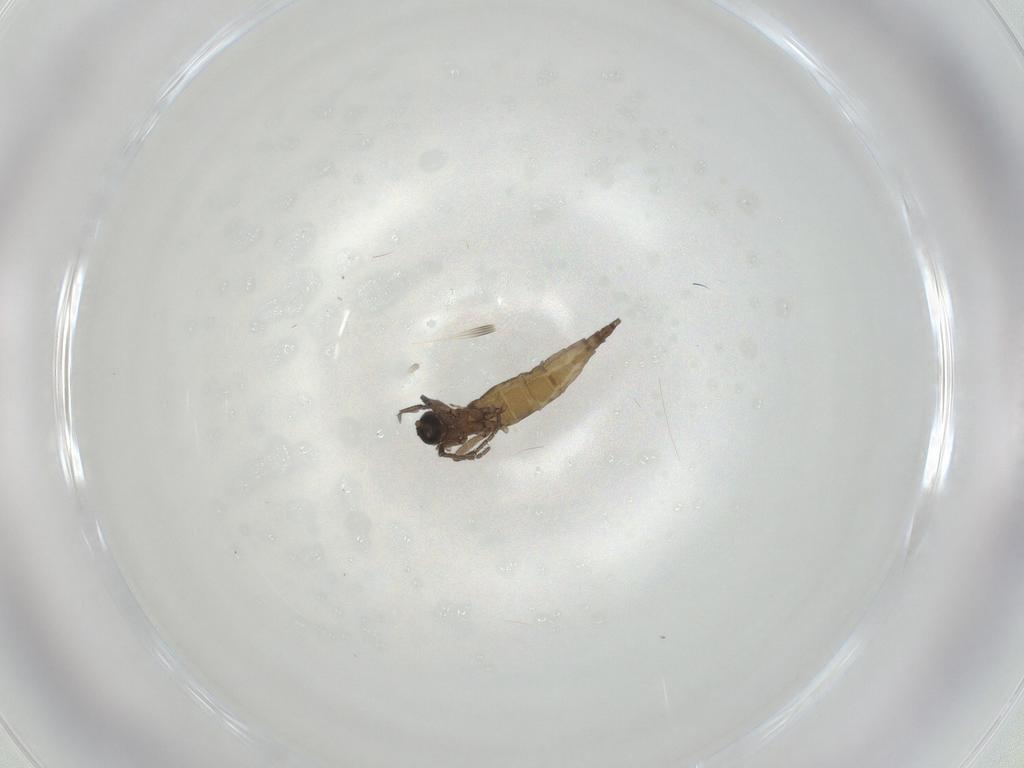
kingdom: Animalia
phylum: Arthropoda
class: Insecta
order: Diptera
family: Sciaridae
